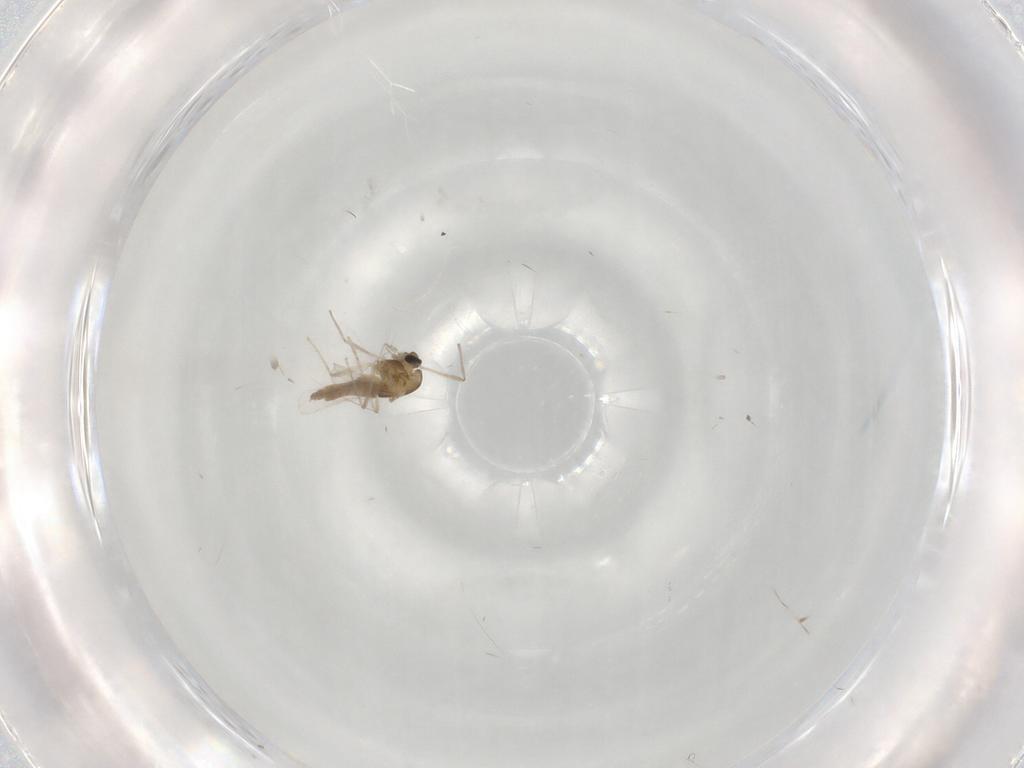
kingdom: Animalia
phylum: Arthropoda
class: Insecta
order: Diptera
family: Chironomidae
